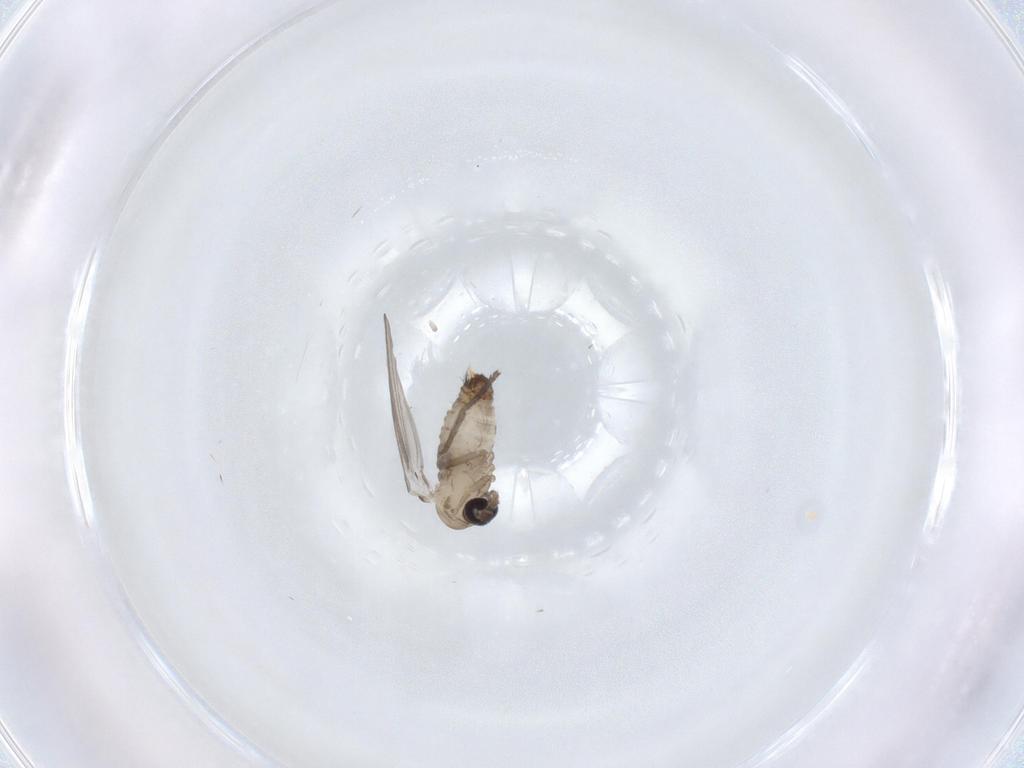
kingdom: Animalia
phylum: Arthropoda
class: Insecta
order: Diptera
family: Psychodidae
